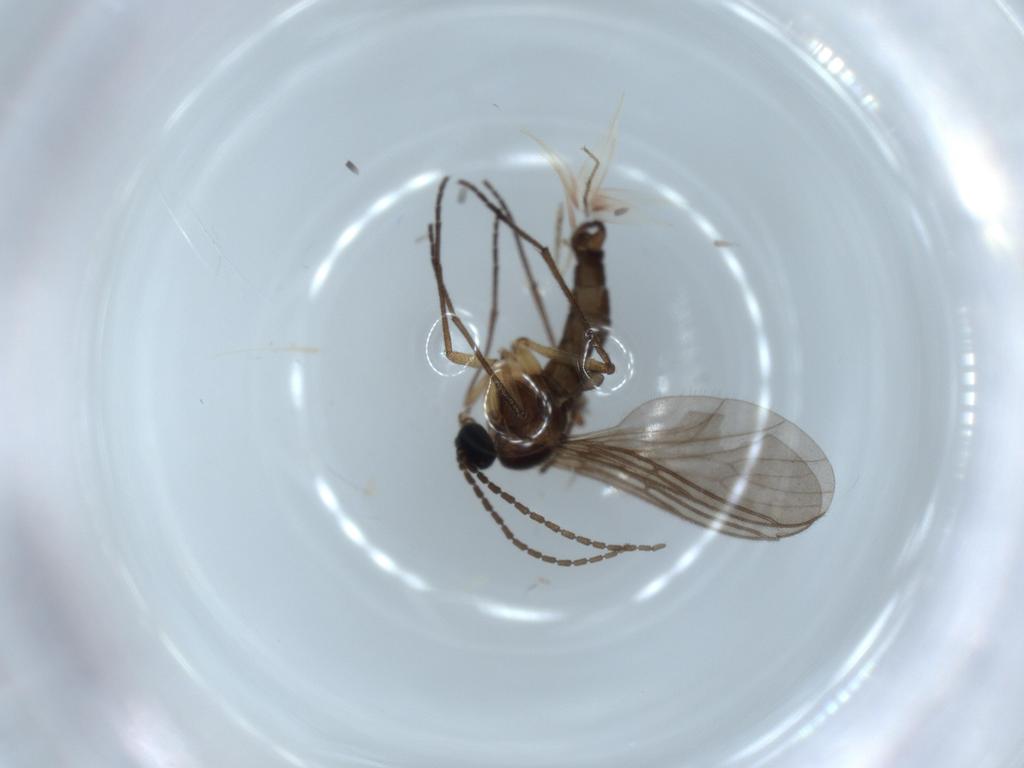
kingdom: Animalia
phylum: Arthropoda
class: Insecta
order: Diptera
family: Sciaridae
